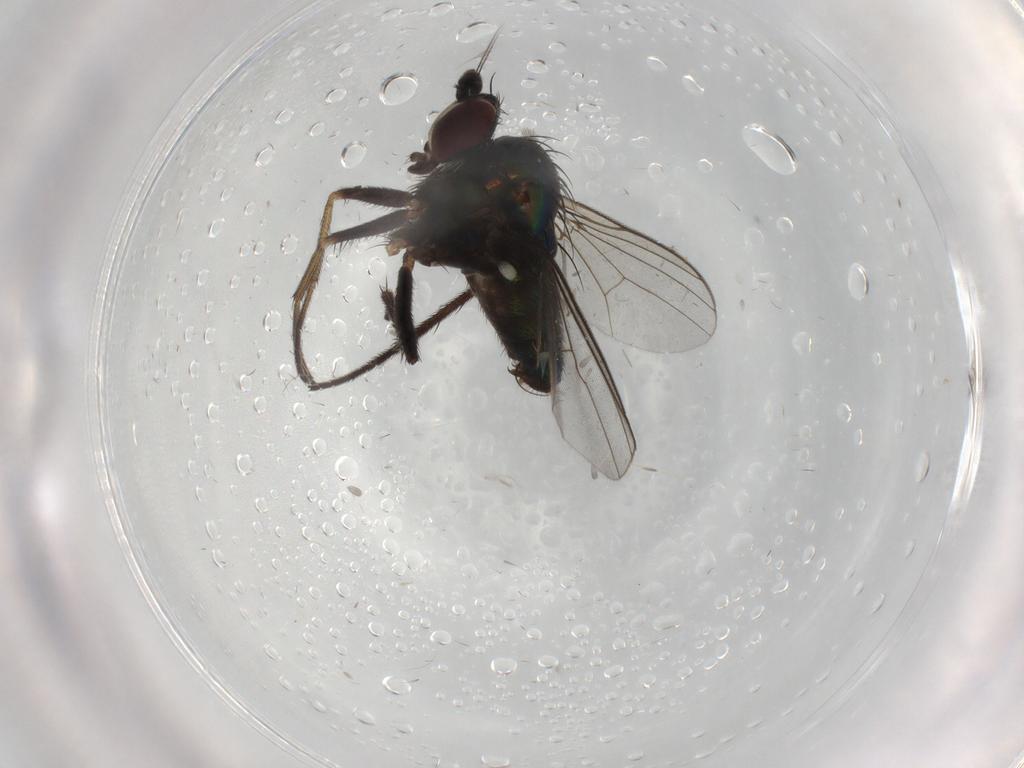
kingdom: Animalia
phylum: Arthropoda
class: Insecta
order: Diptera
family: Dolichopodidae
